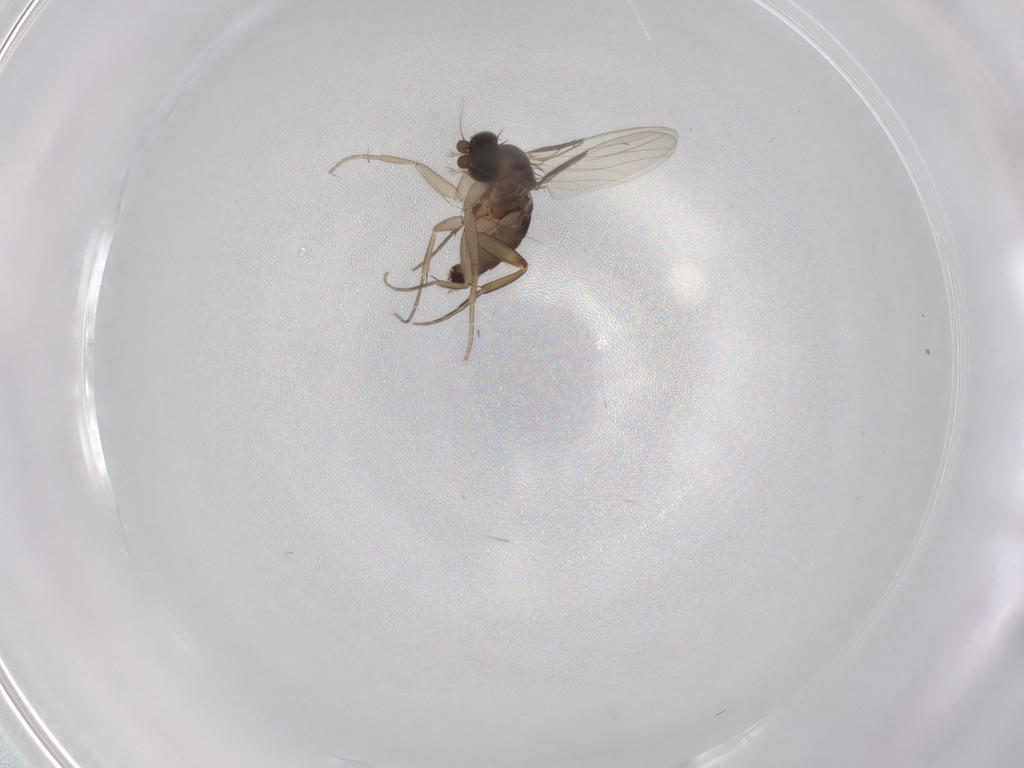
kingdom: Animalia
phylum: Arthropoda
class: Insecta
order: Diptera
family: Phoridae
